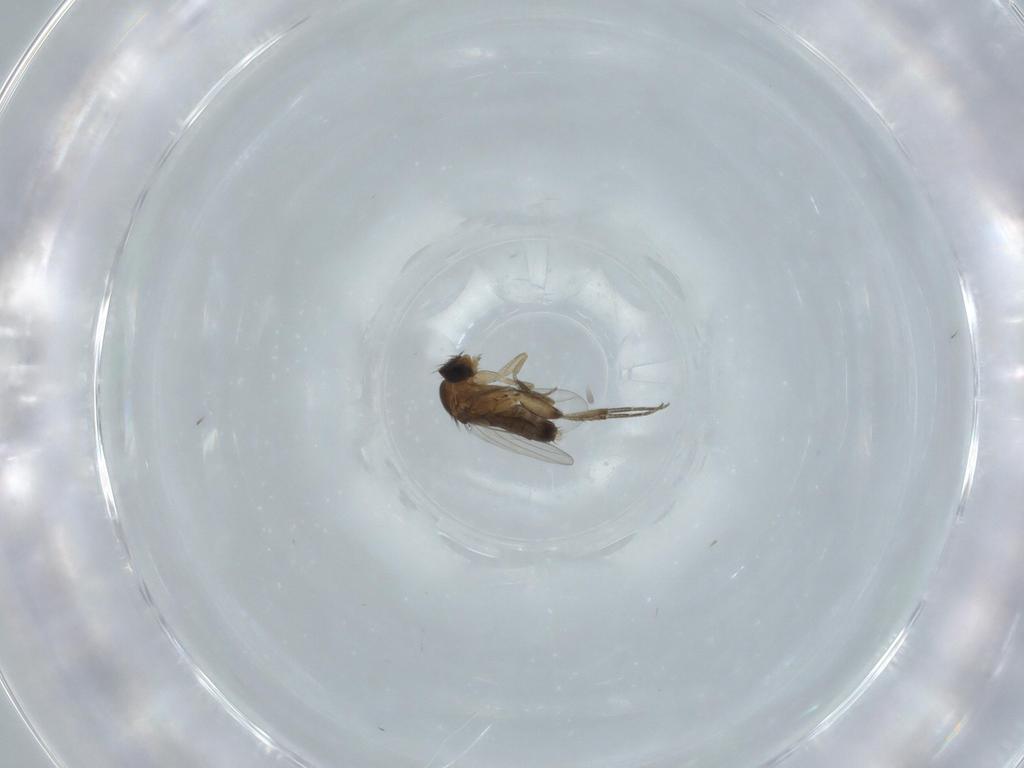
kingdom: Animalia
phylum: Arthropoda
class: Insecta
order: Diptera
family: Phoridae
